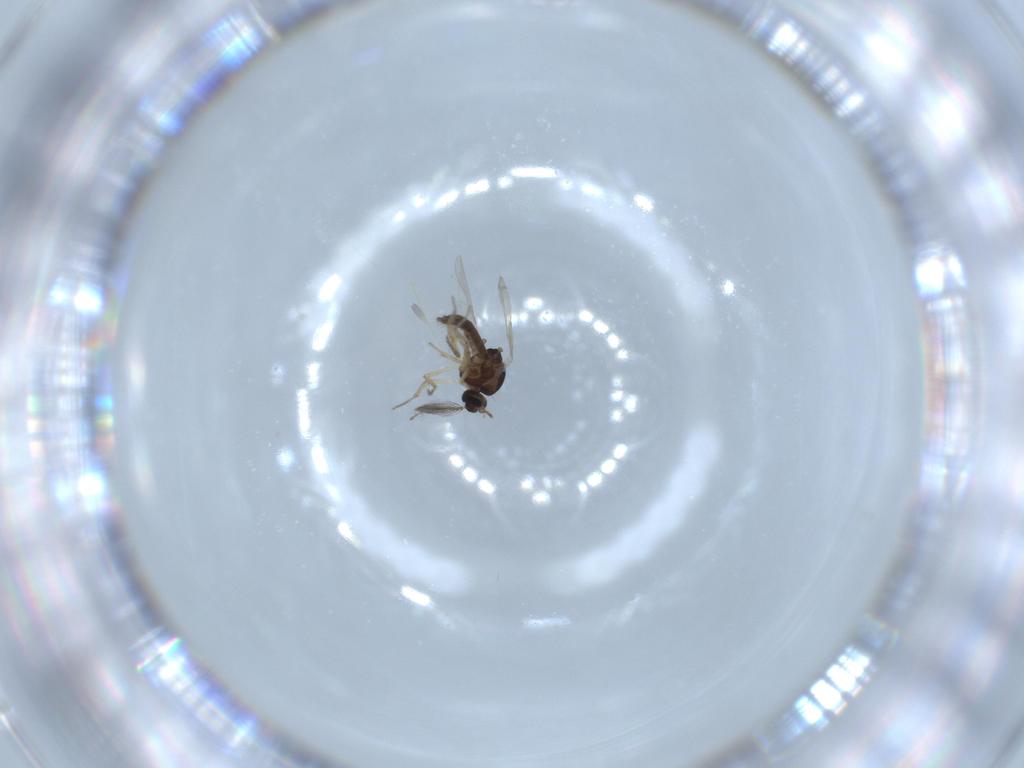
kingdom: Animalia
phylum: Arthropoda
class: Insecta
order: Diptera
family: Ceratopogonidae
